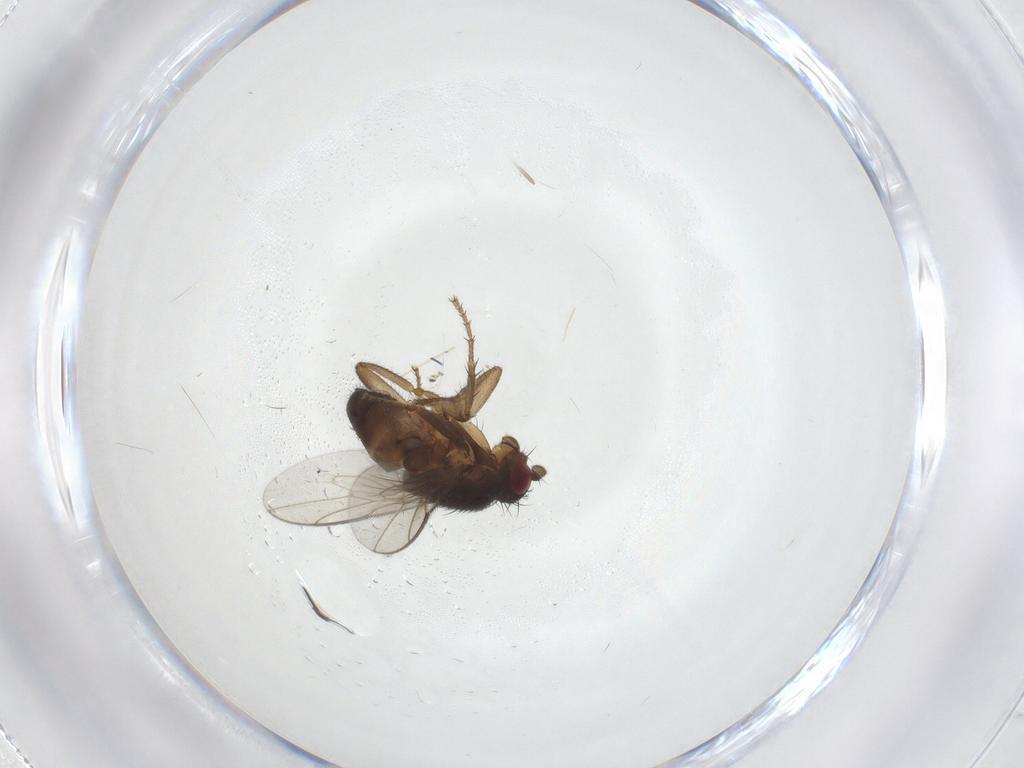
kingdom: Animalia
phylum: Arthropoda
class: Insecta
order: Diptera
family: Sphaeroceridae
